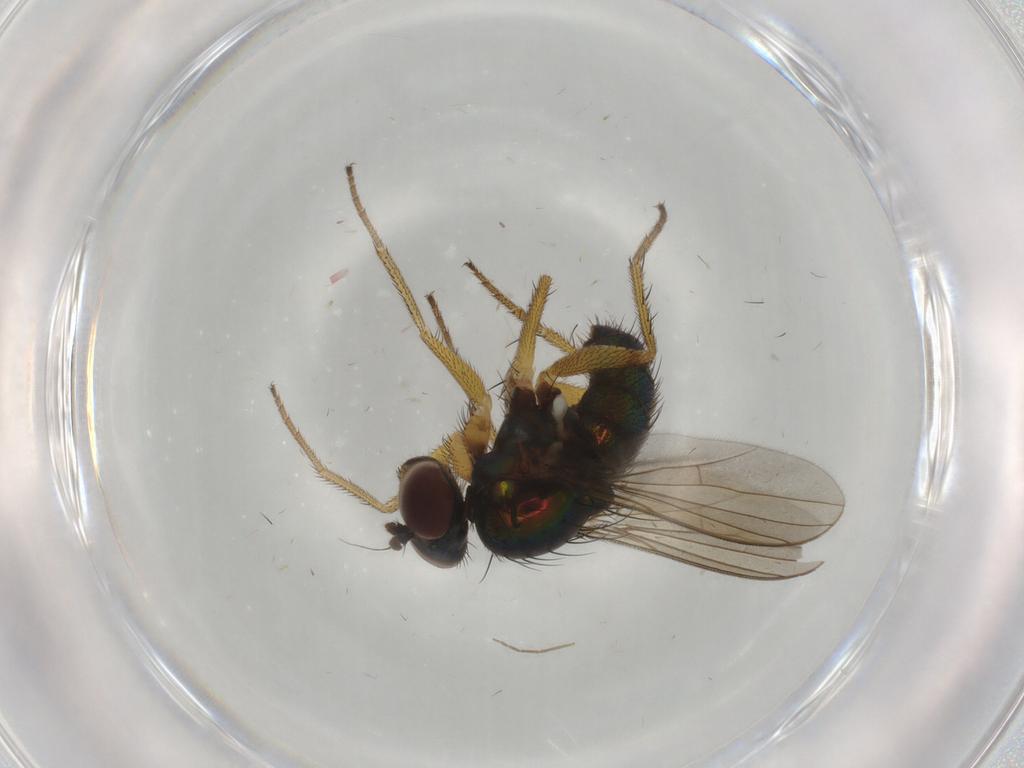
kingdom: Animalia
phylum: Arthropoda
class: Insecta
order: Diptera
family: Dolichopodidae
